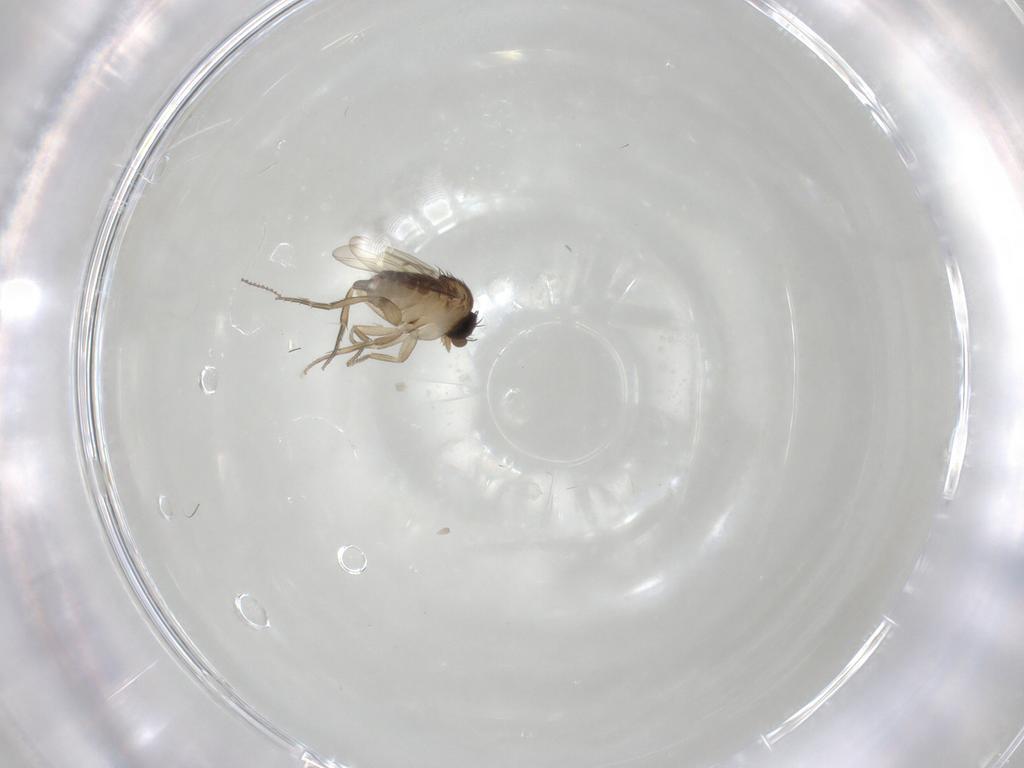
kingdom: Animalia
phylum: Arthropoda
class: Insecta
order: Diptera
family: Cecidomyiidae
